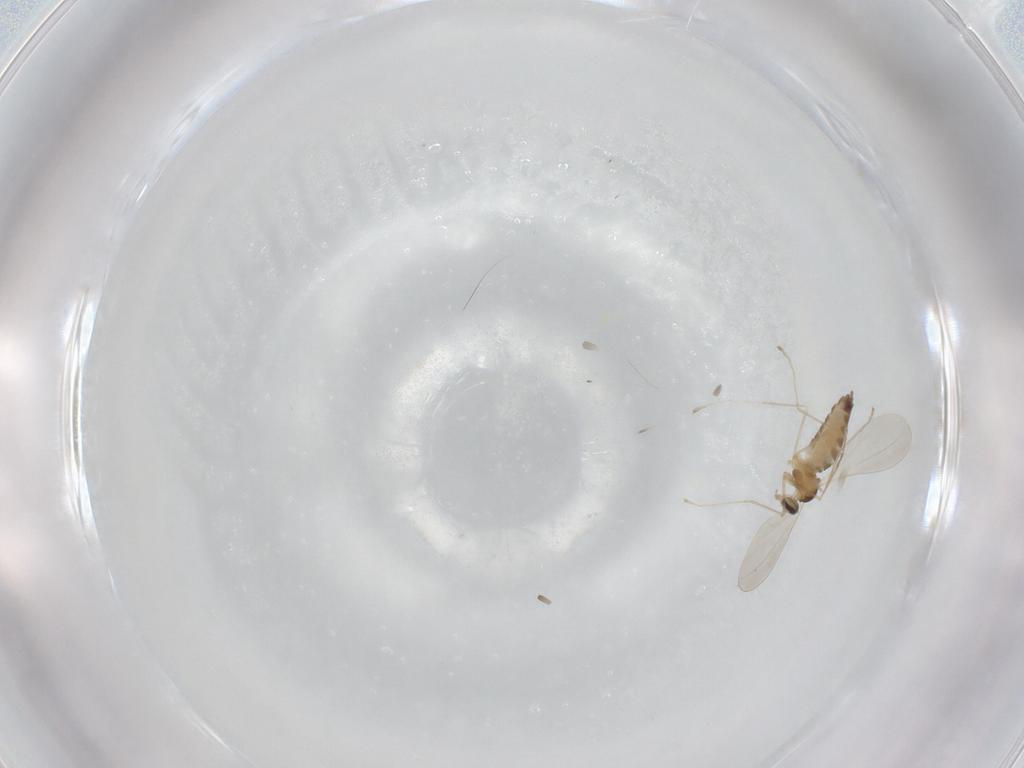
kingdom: Animalia
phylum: Arthropoda
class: Insecta
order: Diptera
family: Cecidomyiidae
